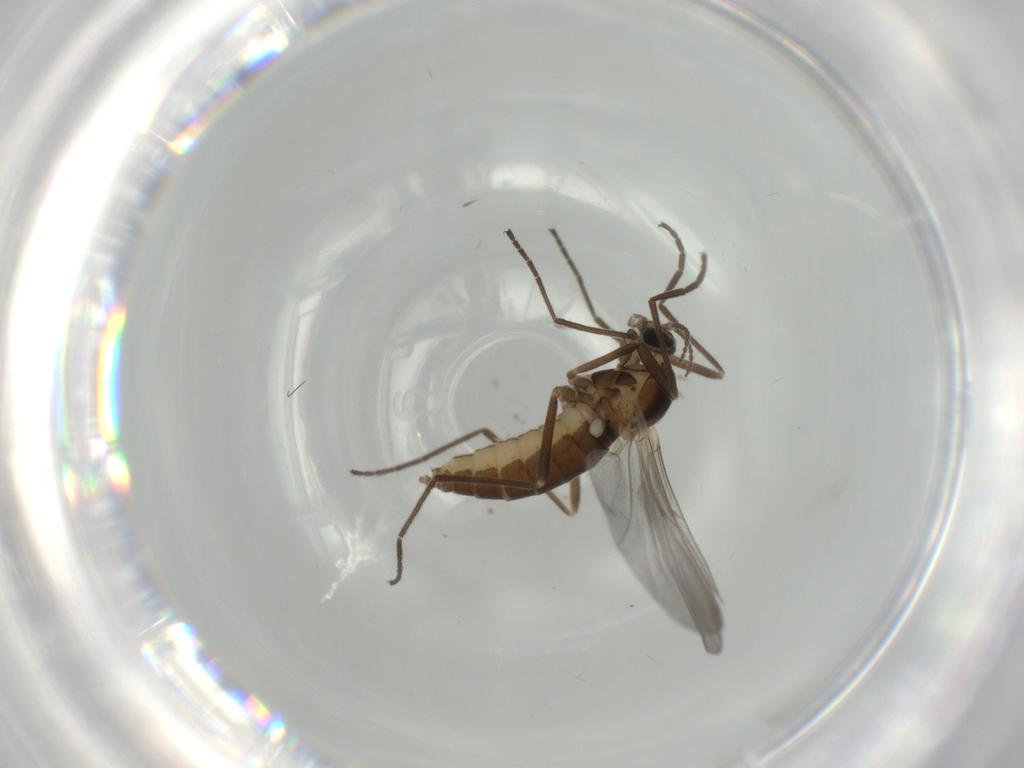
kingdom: Animalia
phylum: Arthropoda
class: Insecta
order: Diptera
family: Cecidomyiidae
